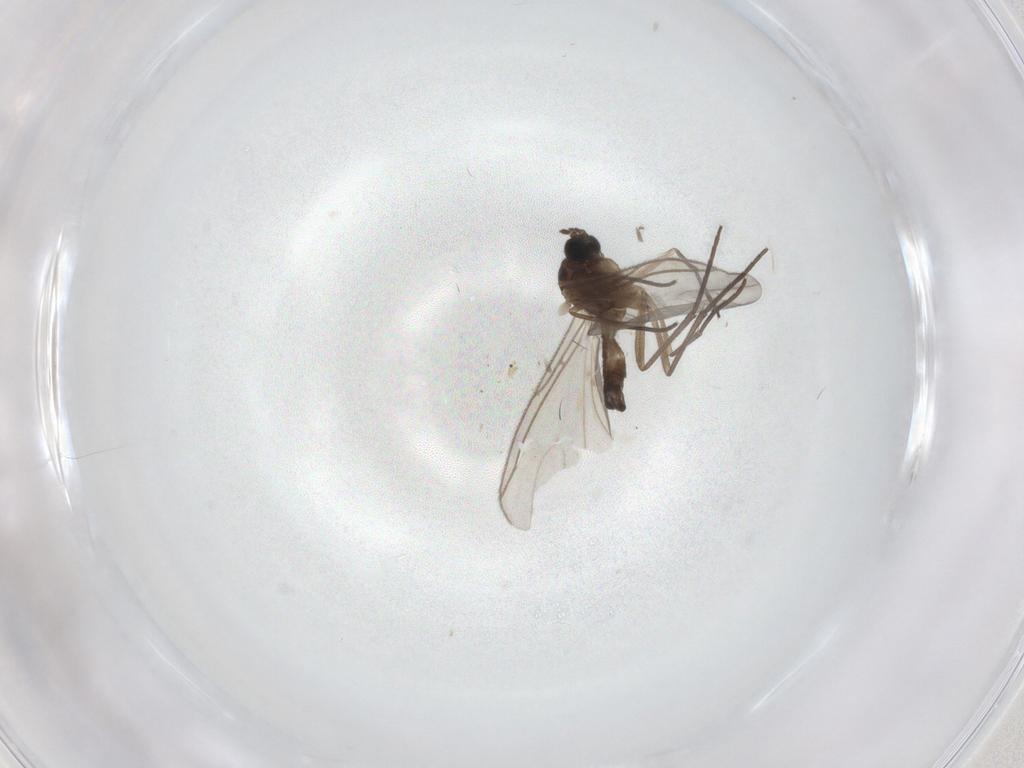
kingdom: Animalia
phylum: Arthropoda
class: Insecta
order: Diptera
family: Sciaridae
